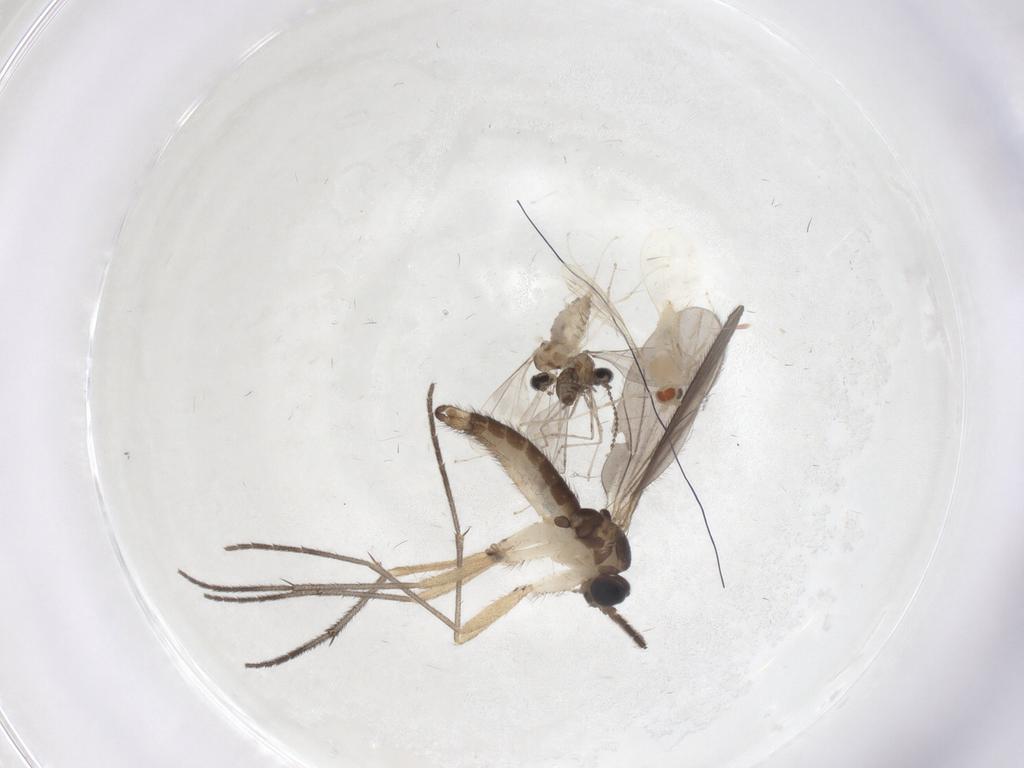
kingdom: Animalia
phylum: Arthropoda
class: Insecta
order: Diptera
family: Sciaridae
